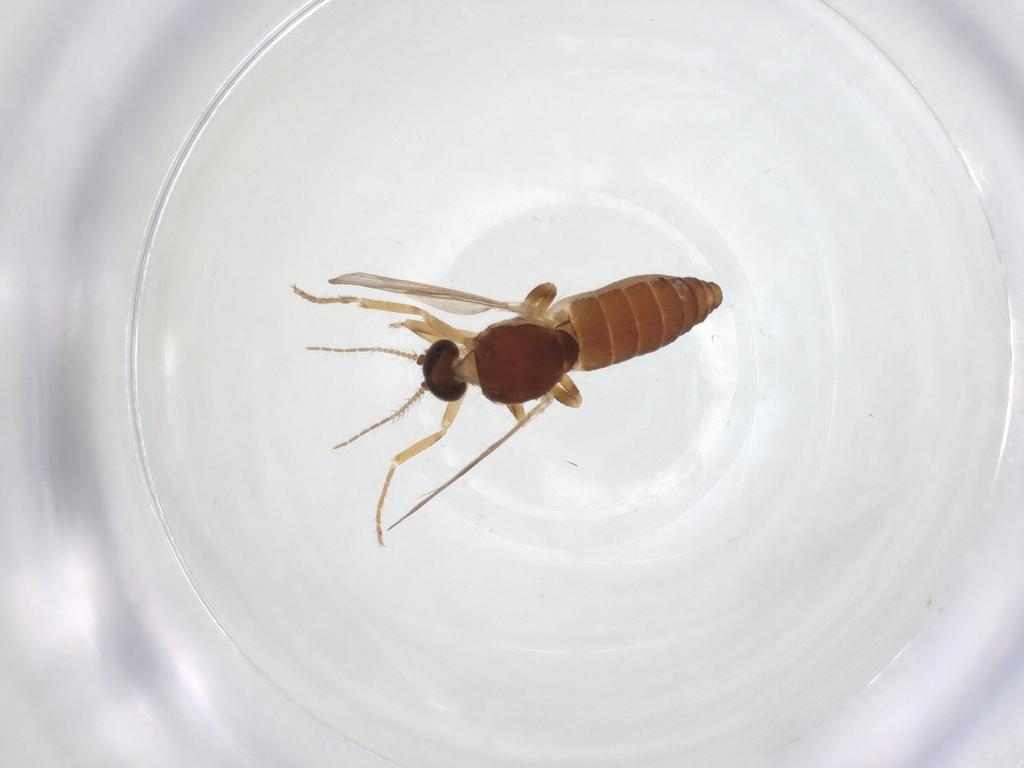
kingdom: Animalia
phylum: Arthropoda
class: Insecta
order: Diptera
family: Ceratopogonidae
